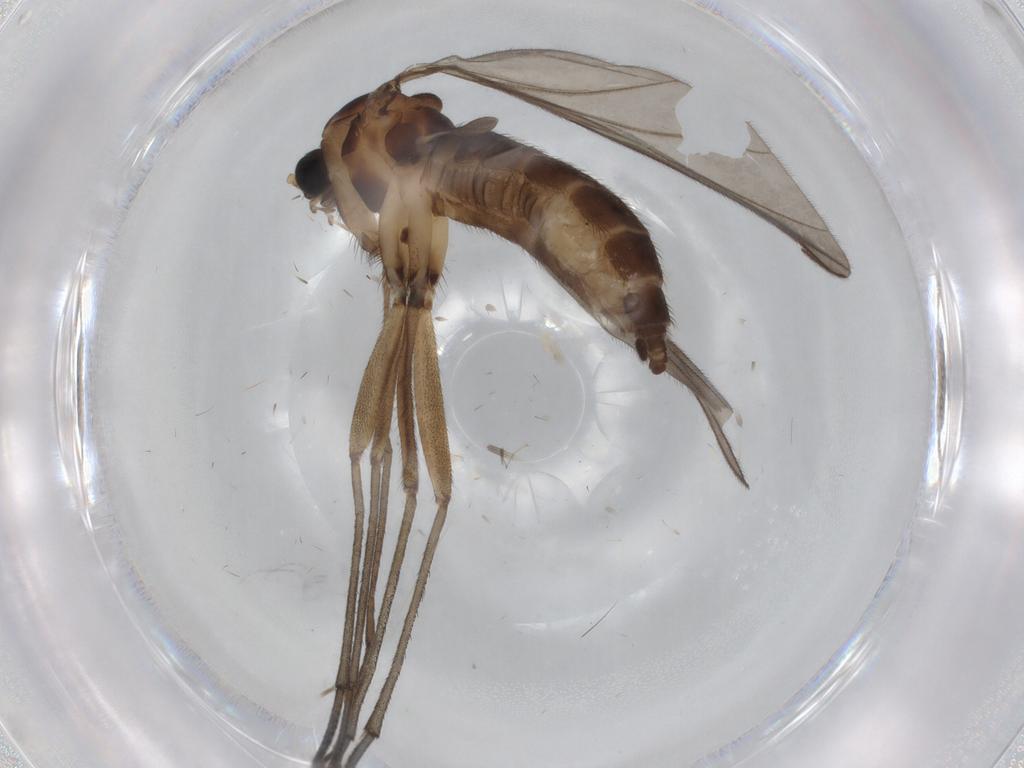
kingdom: Animalia
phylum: Arthropoda
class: Insecta
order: Diptera
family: Sciaridae
